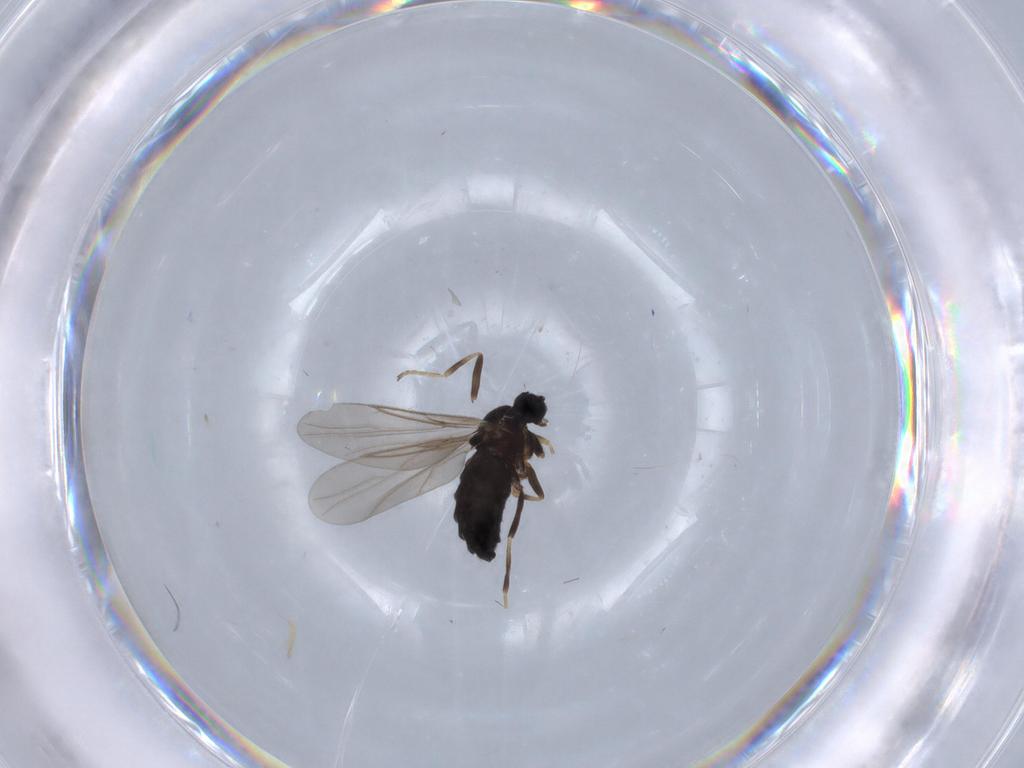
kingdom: Animalia
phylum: Arthropoda
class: Insecta
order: Diptera
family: Scatopsidae
